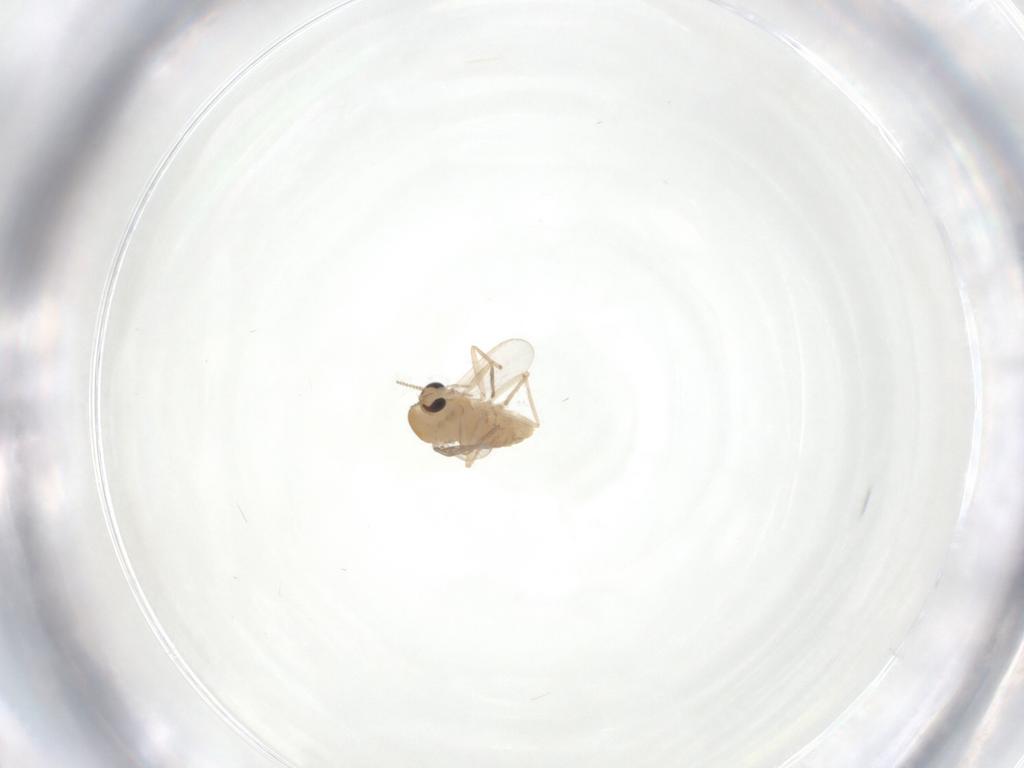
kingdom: Animalia
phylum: Arthropoda
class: Insecta
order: Diptera
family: Chironomidae
